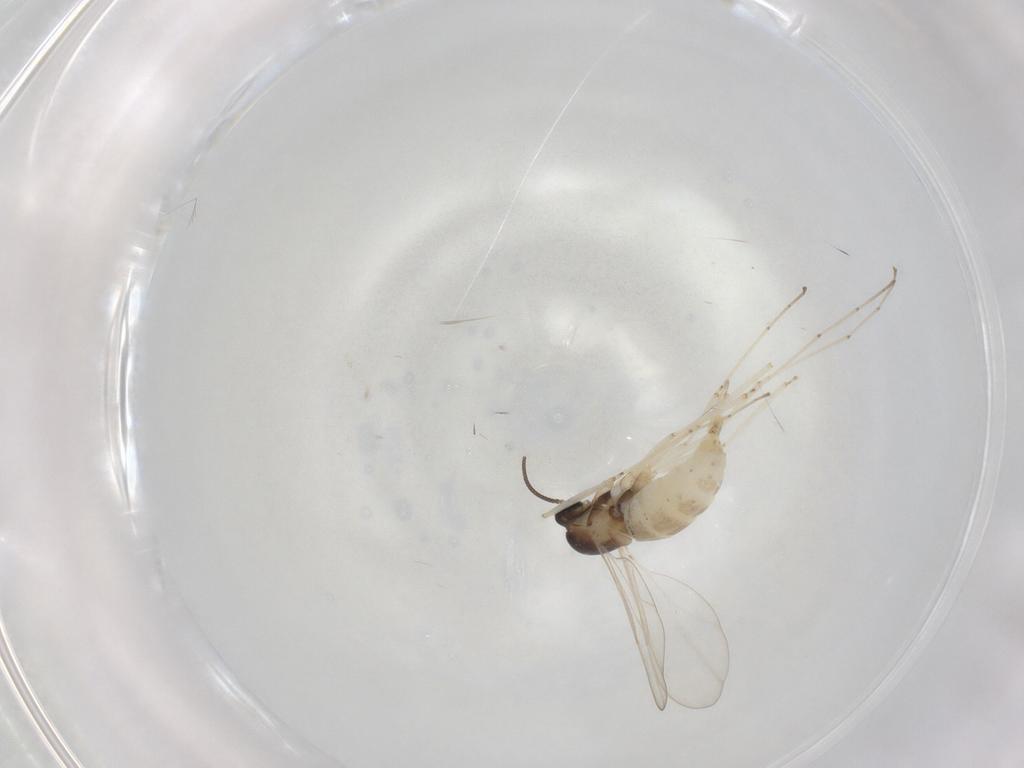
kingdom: Animalia
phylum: Arthropoda
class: Insecta
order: Diptera
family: Cecidomyiidae
